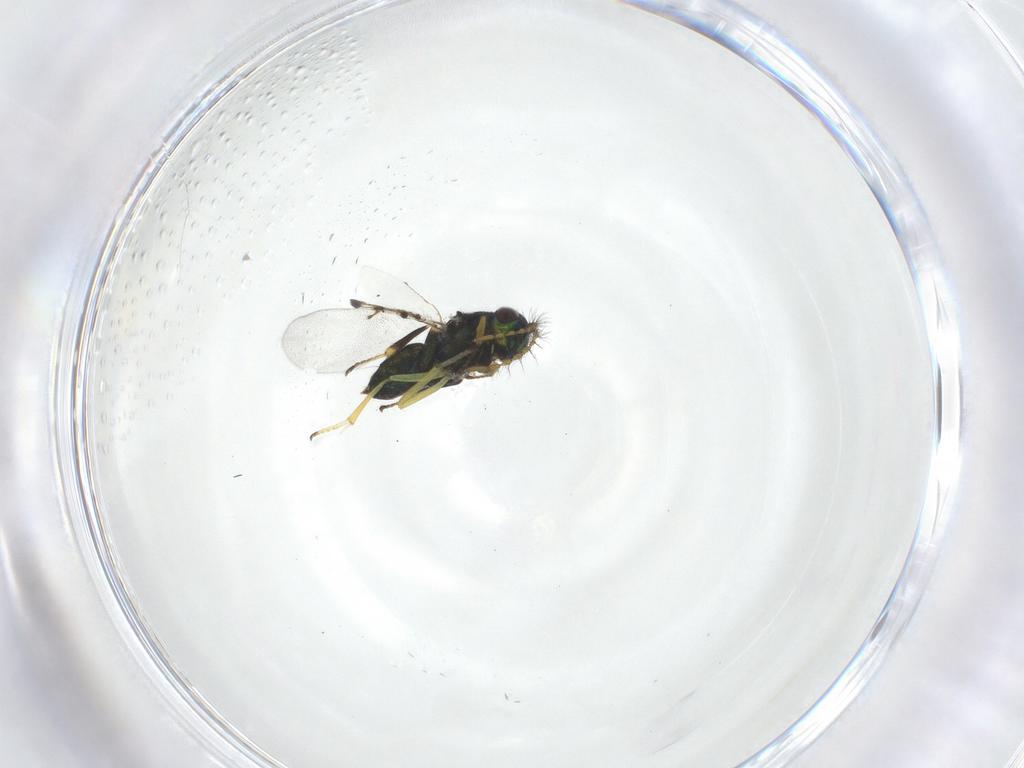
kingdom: Animalia
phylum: Arthropoda
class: Insecta
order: Hymenoptera
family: Encyrtidae
